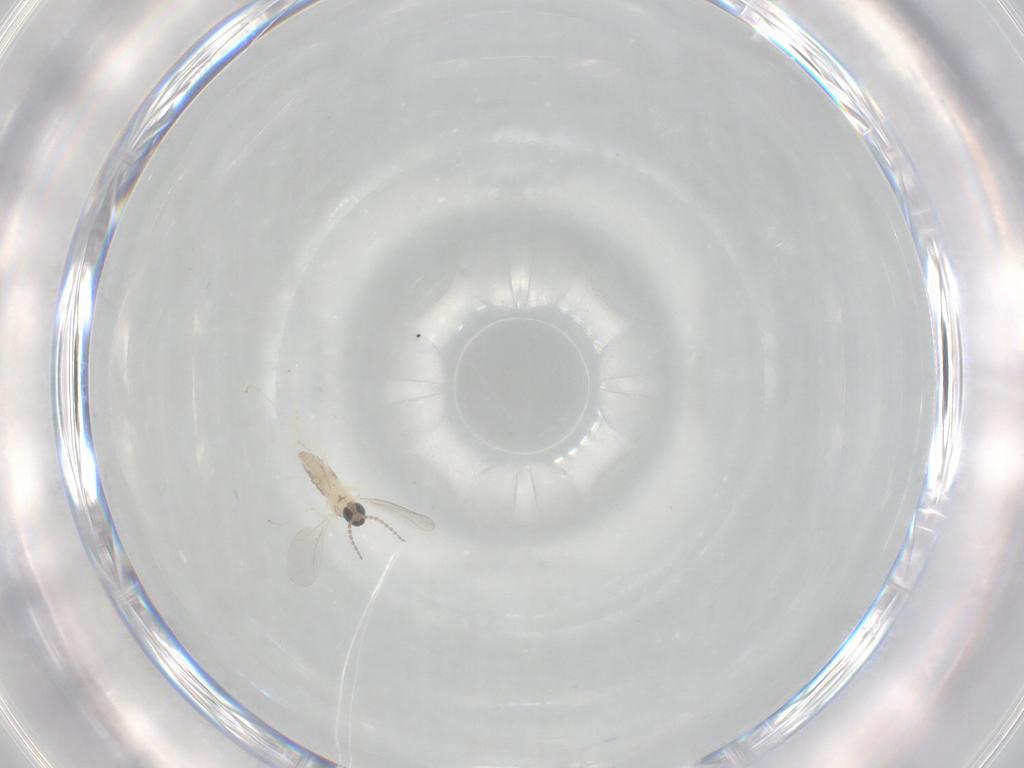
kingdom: Animalia
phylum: Arthropoda
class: Insecta
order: Diptera
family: Cecidomyiidae
